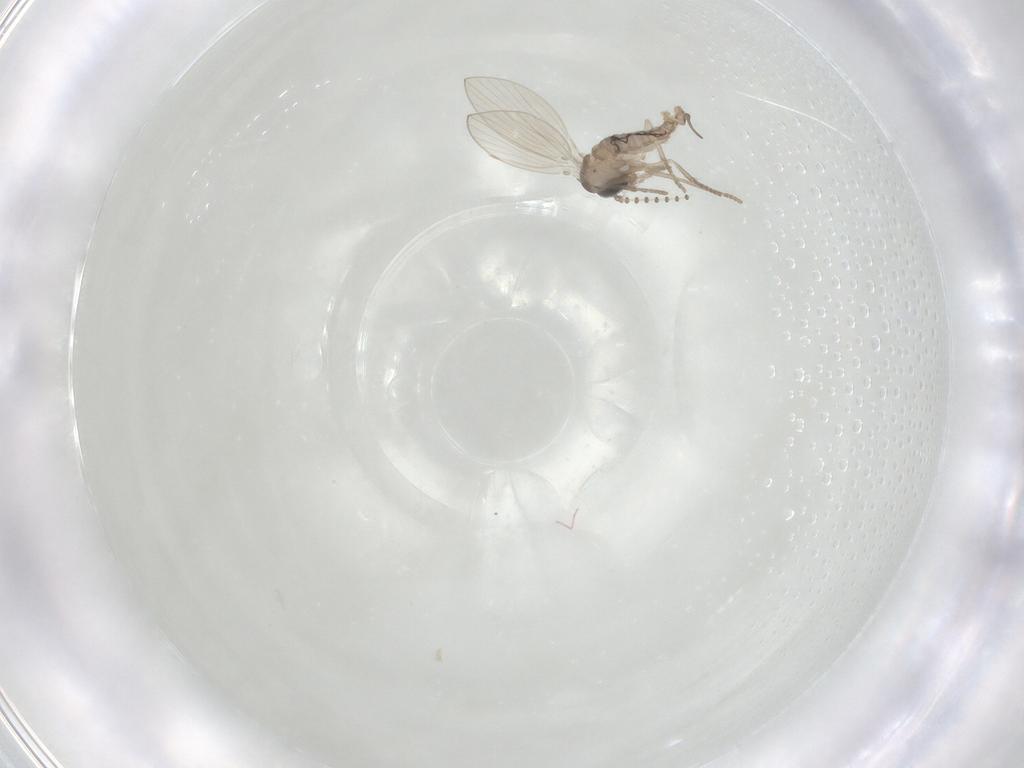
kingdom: Animalia
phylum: Arthropoda
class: Insecta
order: Diptera
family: Psychodidae
